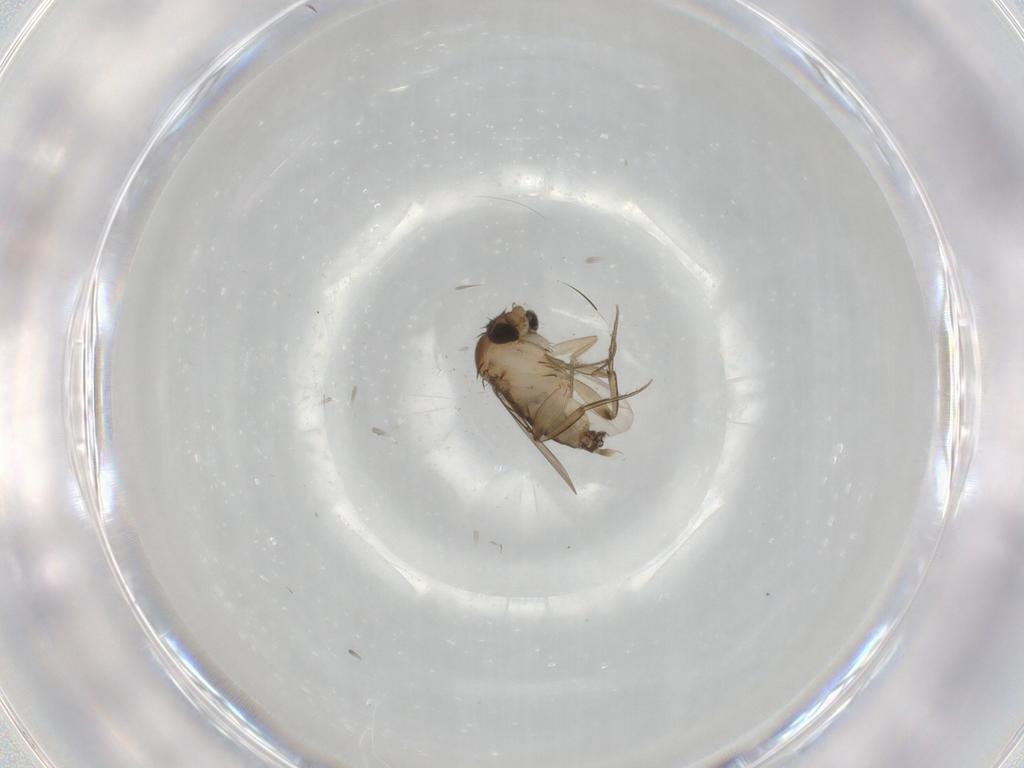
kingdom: Animalia
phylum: Arthropoda
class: Insecta
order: Diptera
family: Phoridae
